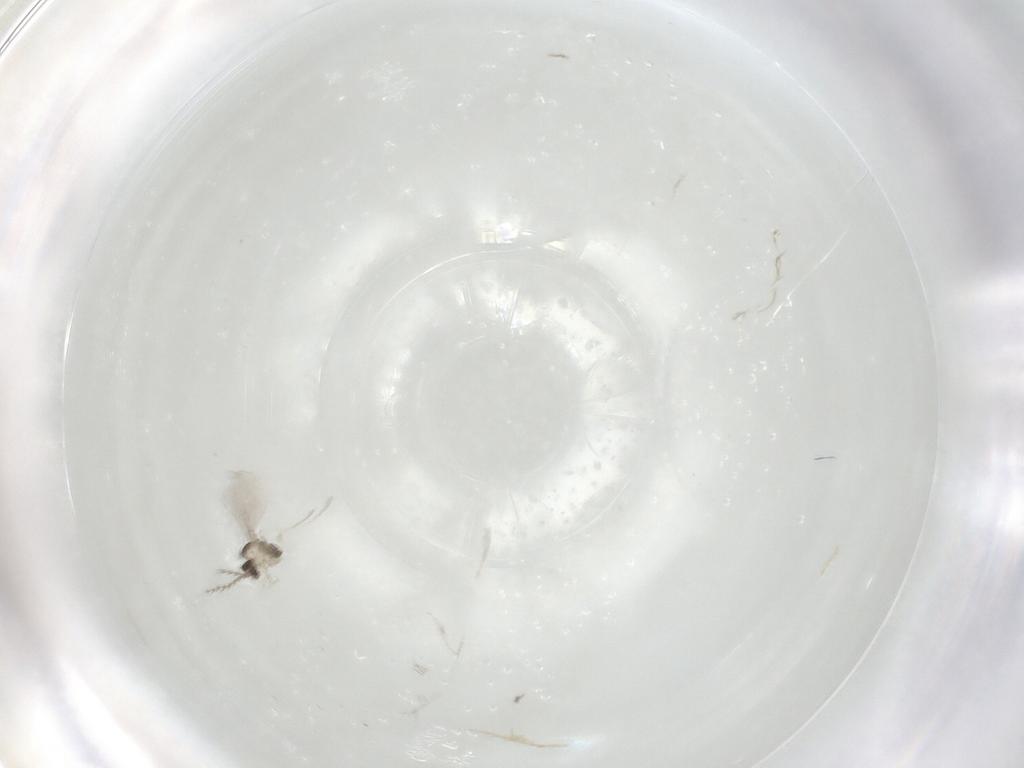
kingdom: Animalia
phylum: Arthropoda
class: Insecta
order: Diptera
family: Cecidomyiidae
